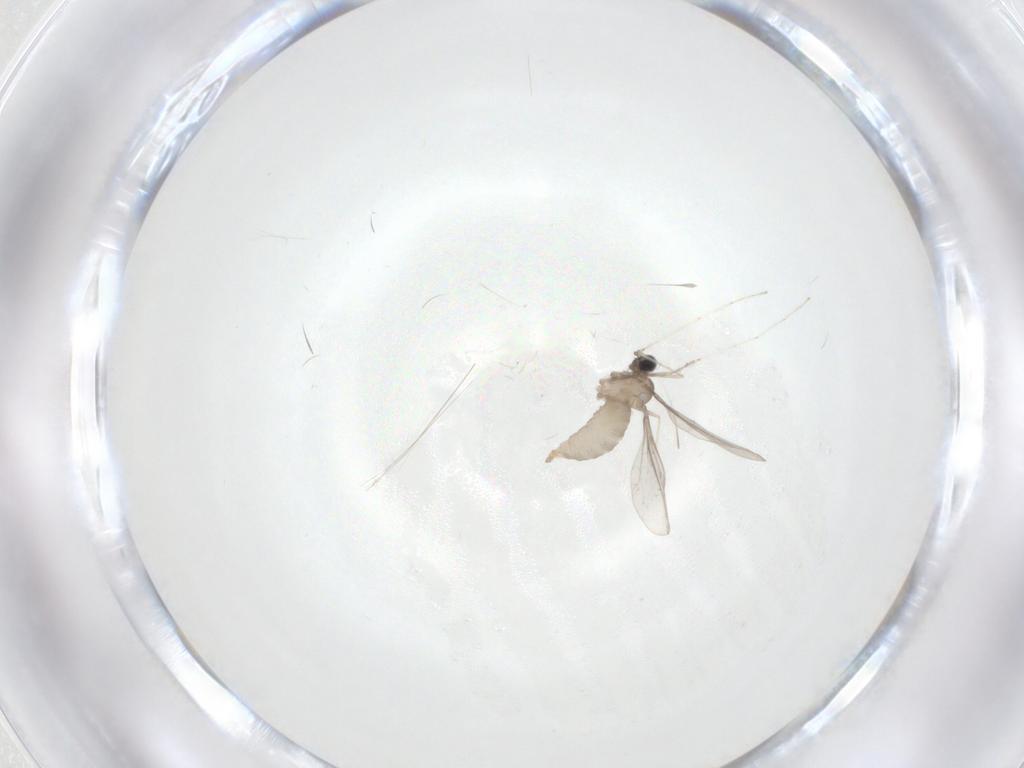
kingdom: Animalia
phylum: Arthropoda
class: Insecta
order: Diptera
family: Cecidomyiidae
